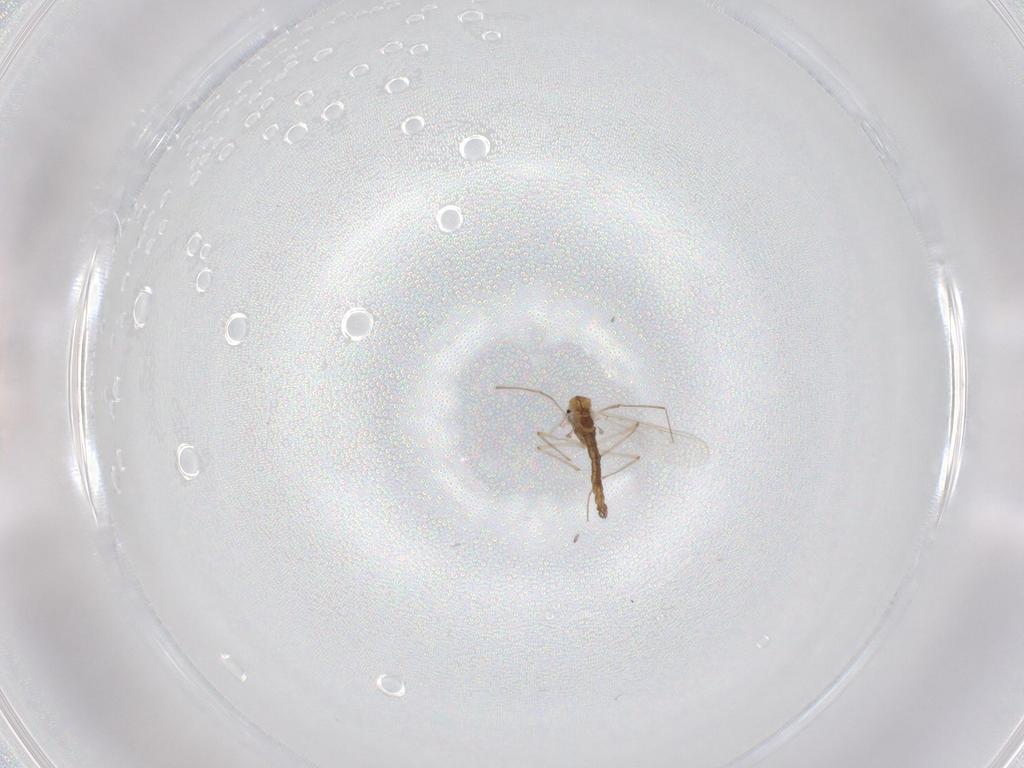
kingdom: Animalia
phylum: Arthropoda
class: Insecta
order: Diptera
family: Chironomidae
